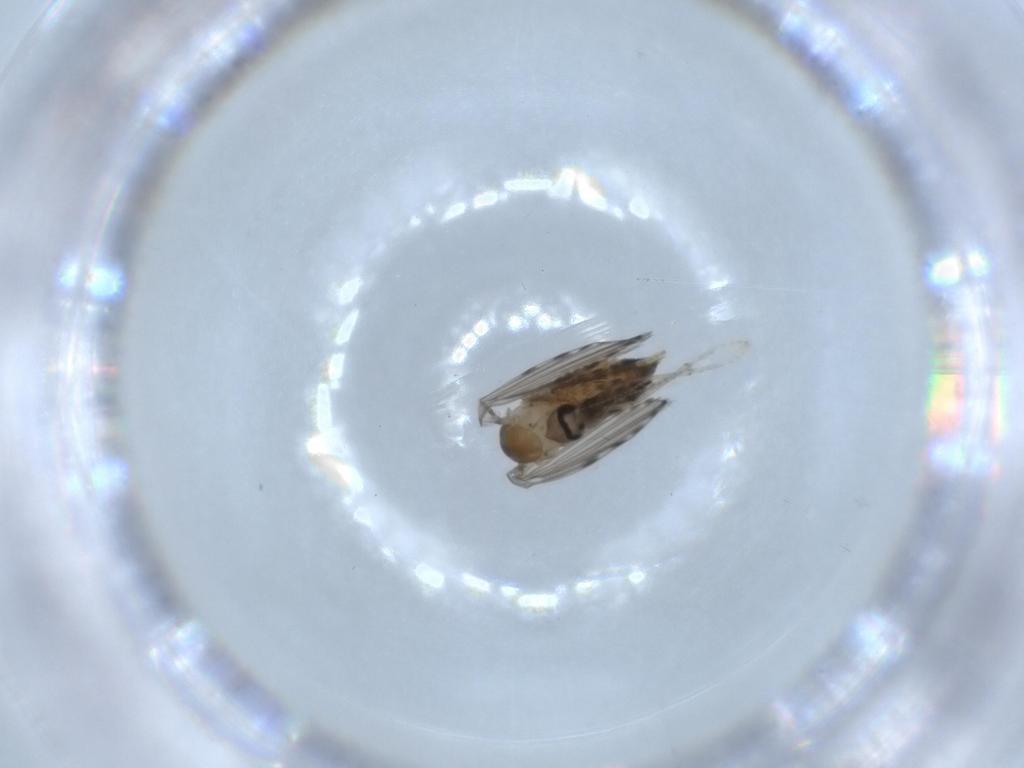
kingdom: Animalia
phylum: Arthropoda
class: Insecta
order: Diptera
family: Psychodidae
